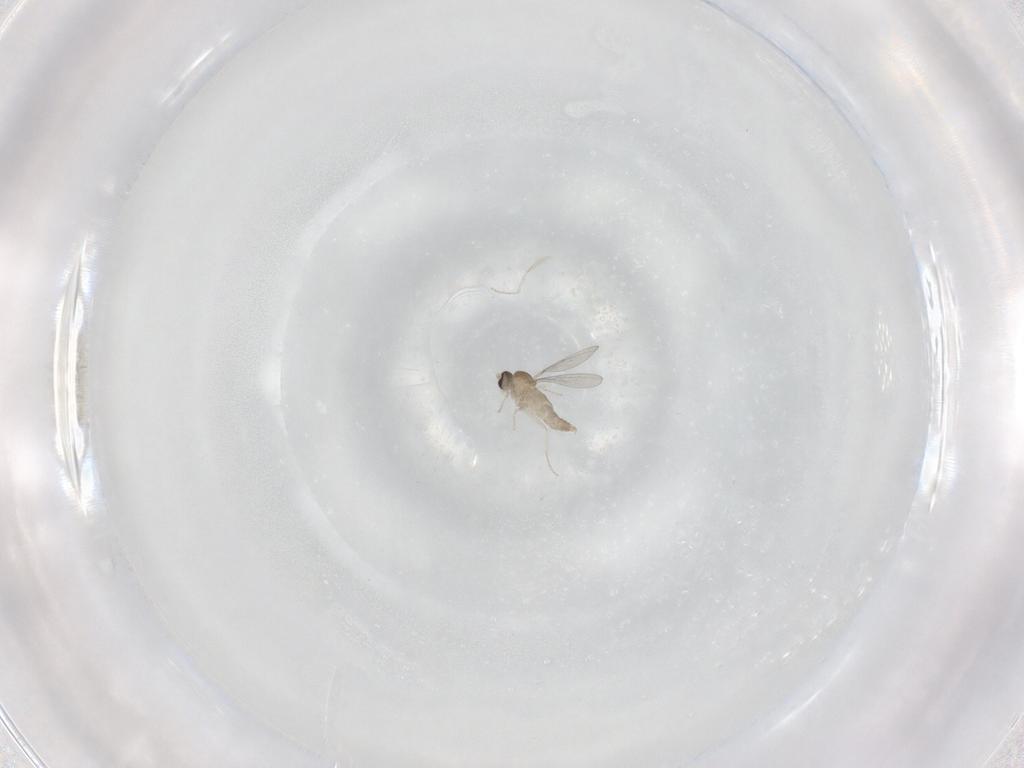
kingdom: Animalia
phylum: Arthropoda
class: Insecta
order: Diptera
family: Cecidomyiidae
